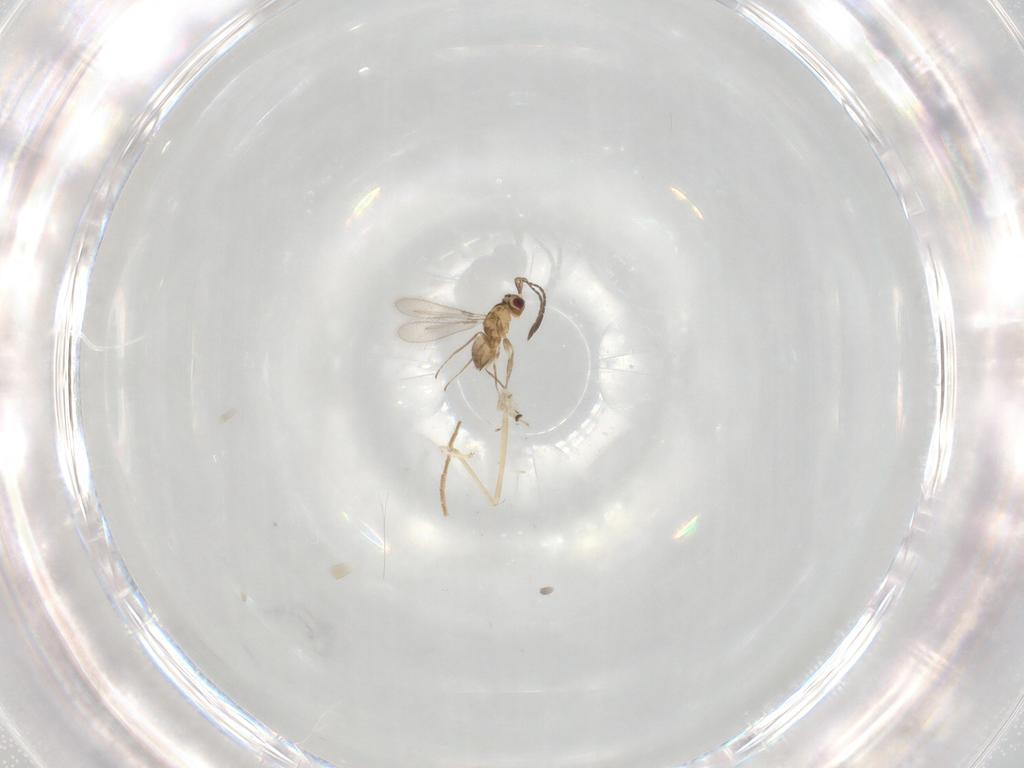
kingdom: Animalia
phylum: Arthropoda
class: Insecta
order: Hymenoptera
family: Mymaridae
